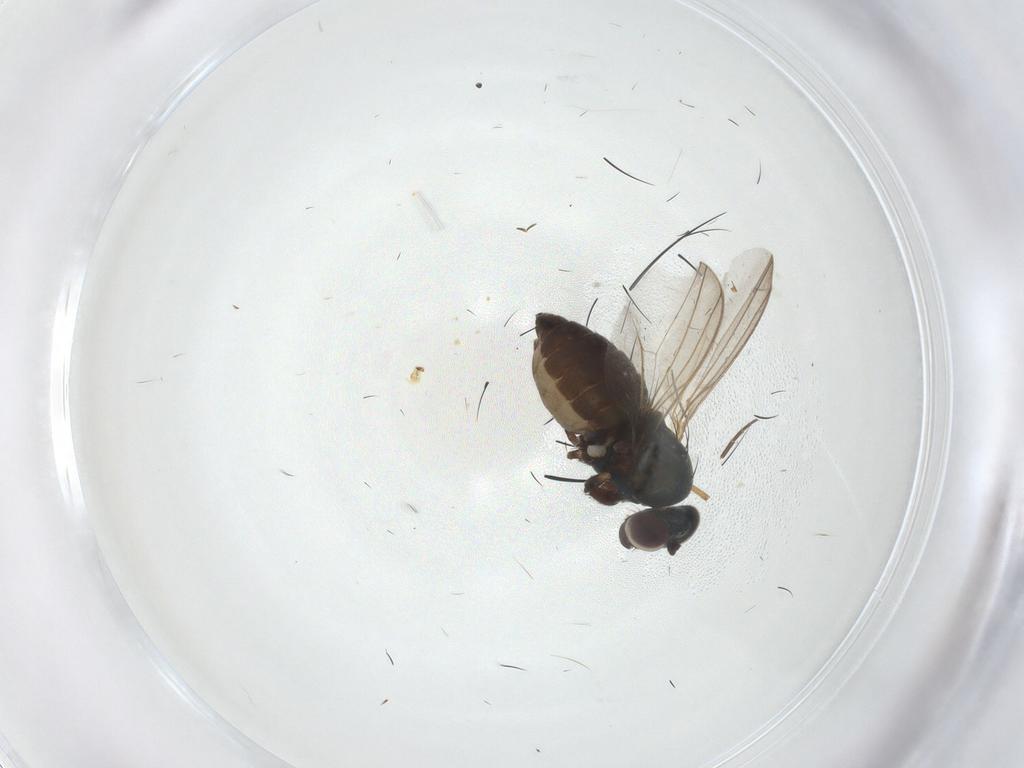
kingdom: Animalia
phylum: Arthropoda
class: Insecta
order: Diptera
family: Dolichopodidae
